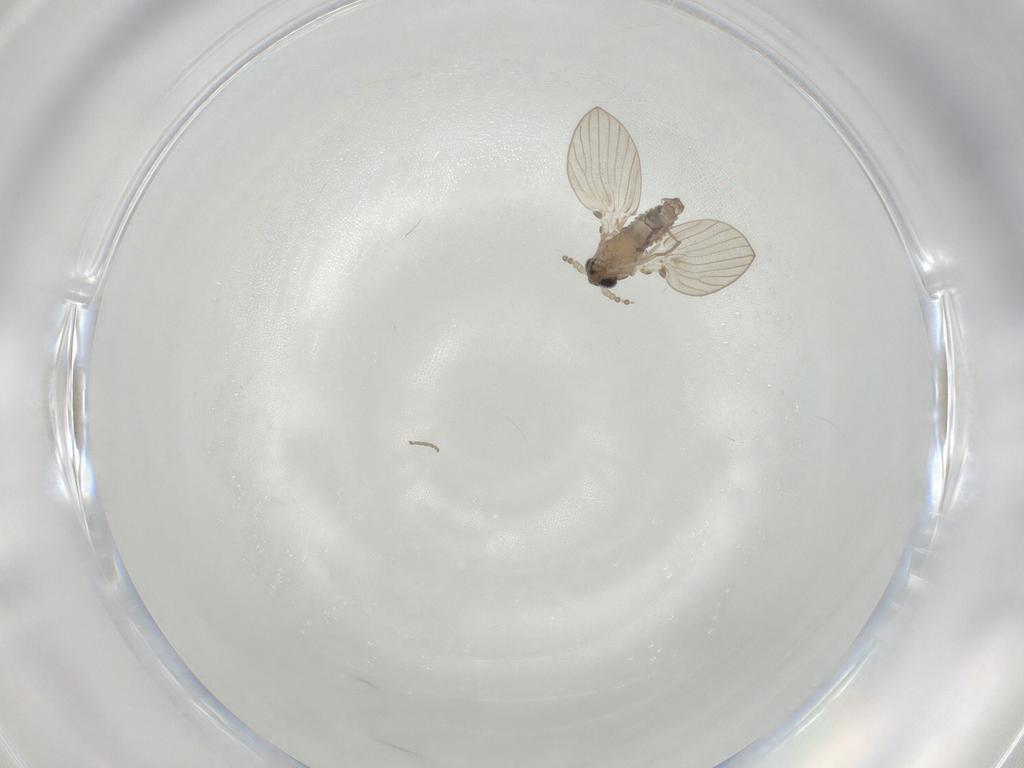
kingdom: Animalia
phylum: Arthropoda
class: Insecta
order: Diptera
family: Psychodidae
